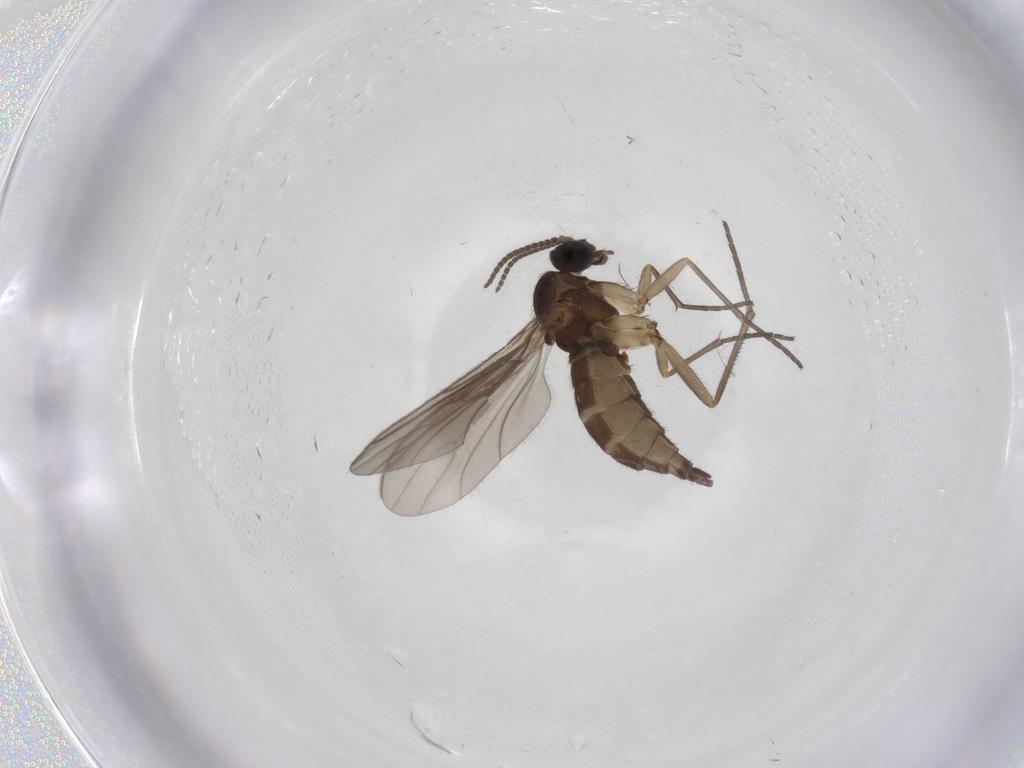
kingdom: Animalia
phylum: Arthropoda
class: Insecta
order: Diptera
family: Sciaridae
